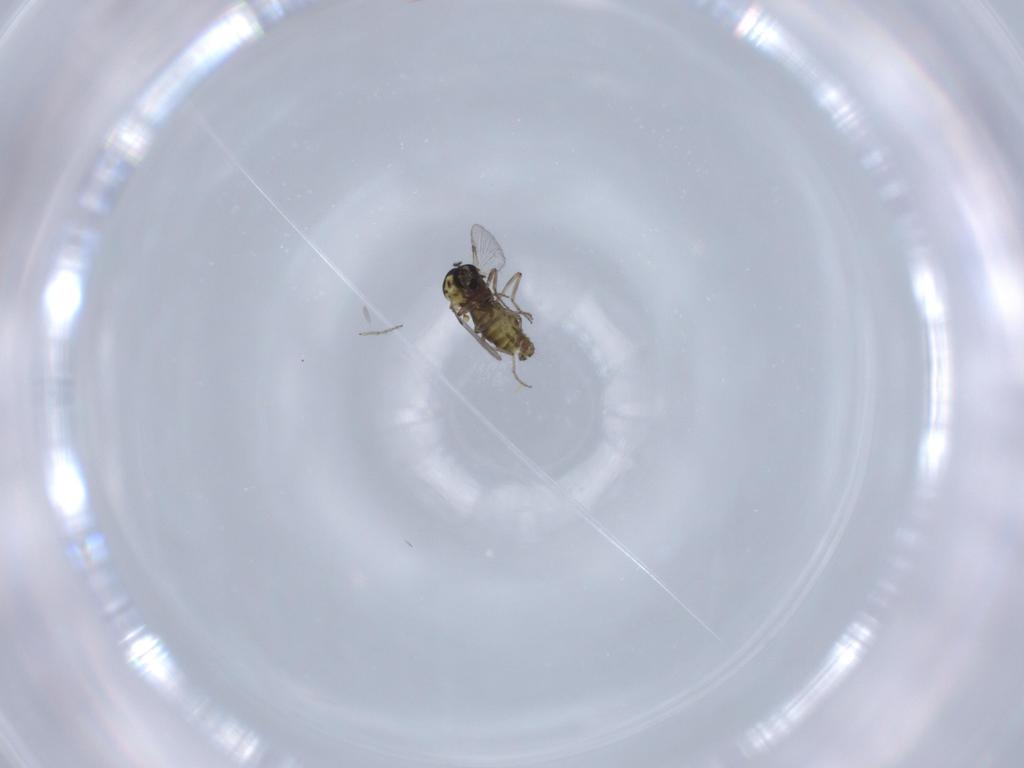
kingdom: Animalia
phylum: Arthropoda
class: Insecta
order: Diptera
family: Ceratopogonidae
